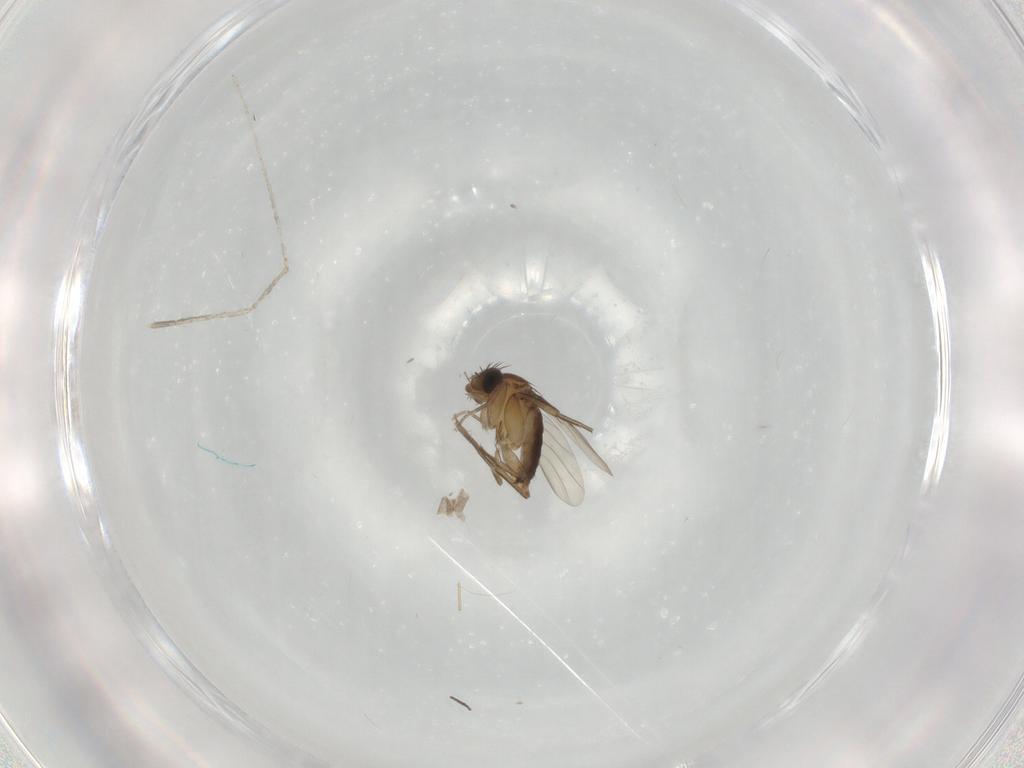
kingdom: Animalia
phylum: Arthropoda
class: Insecta
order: Diptera
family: Phoridae
